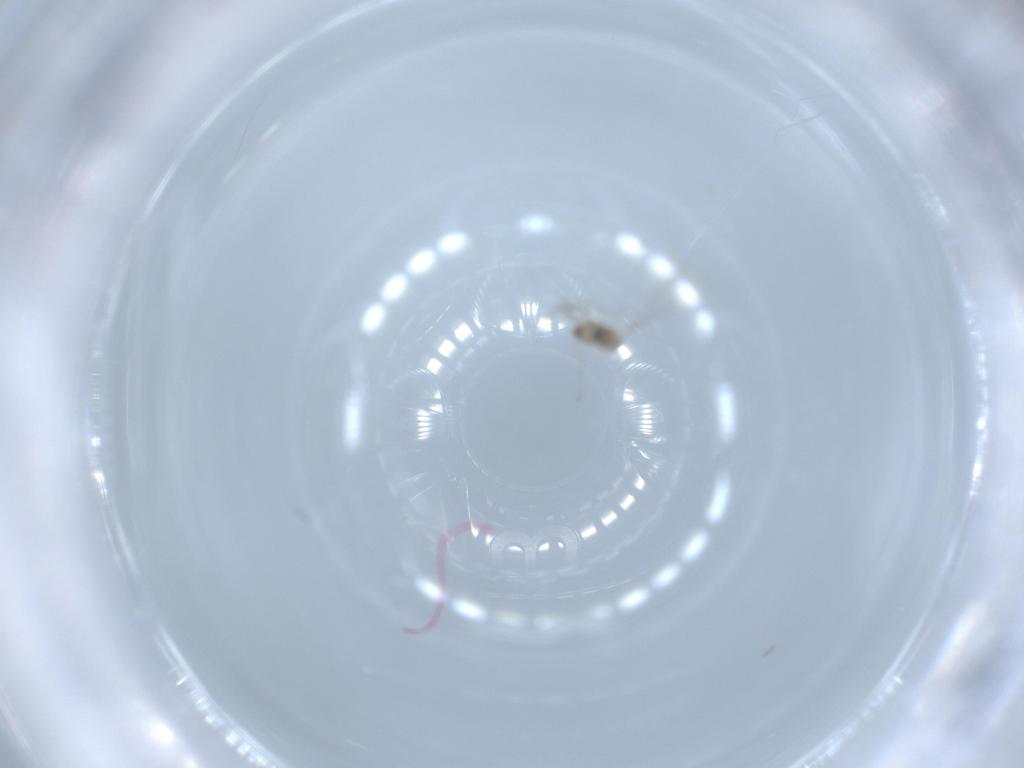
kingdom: Animalia
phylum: Arthropoda
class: Insecta
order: Diptera
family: Cecidomyiidae
